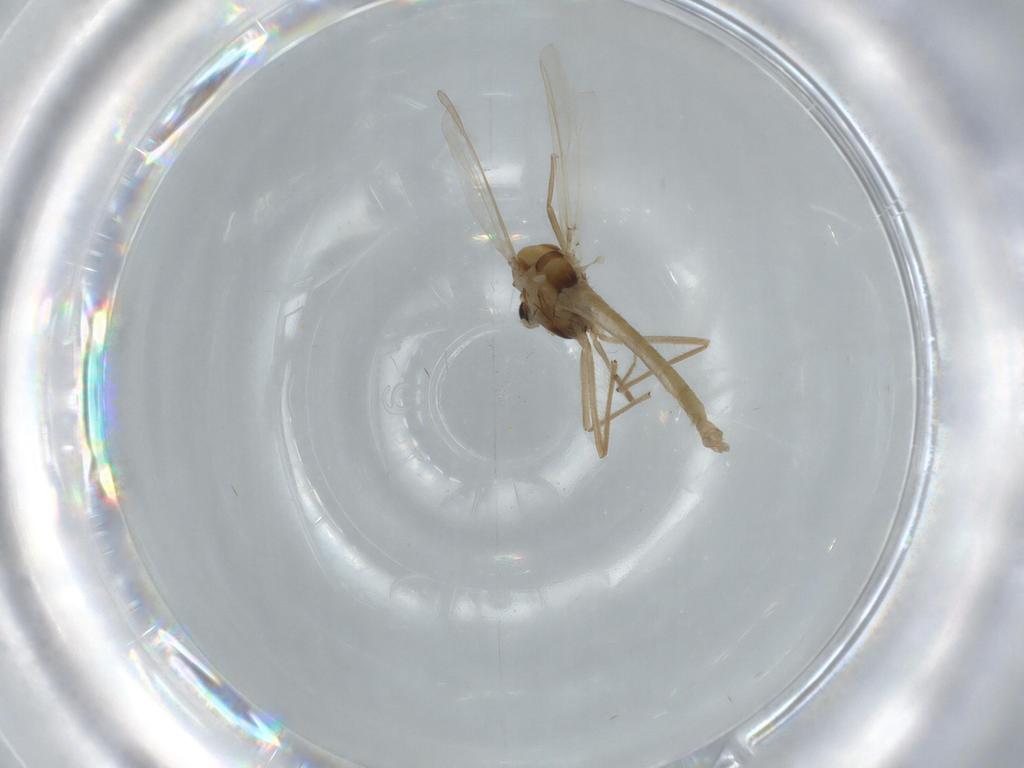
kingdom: Animalia
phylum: Arthropoda
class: Insecta
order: Diptera
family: Chironomidae
